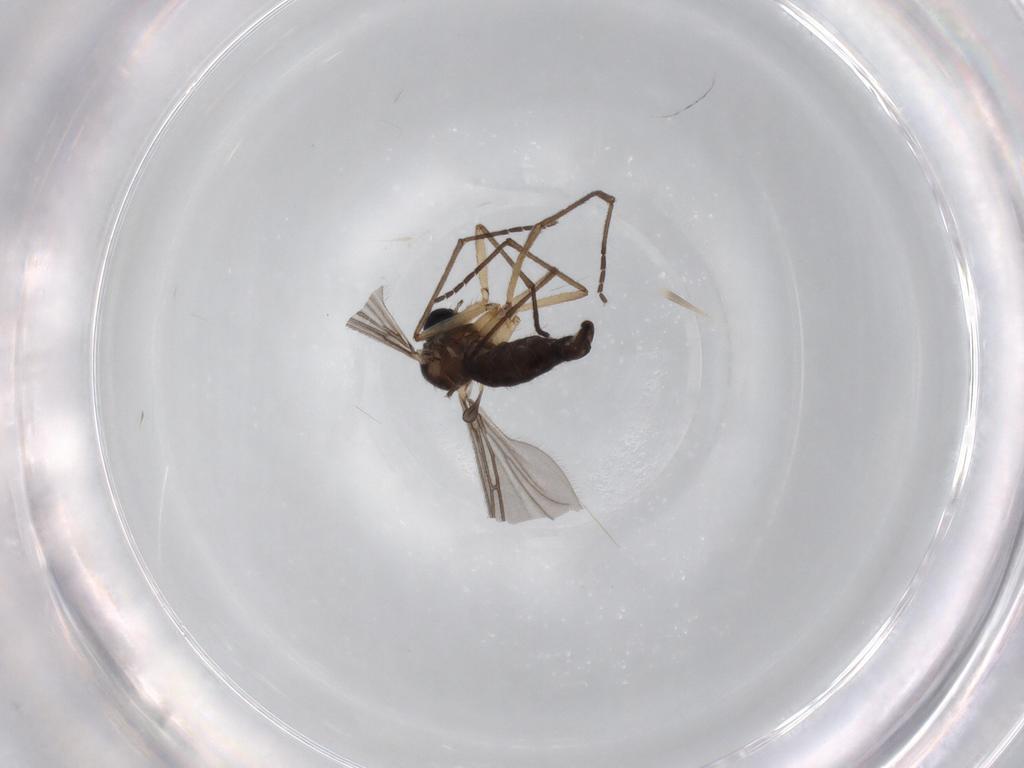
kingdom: Animalia
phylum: Arthropoda
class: Insecta
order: Diptera
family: Sciaridae
